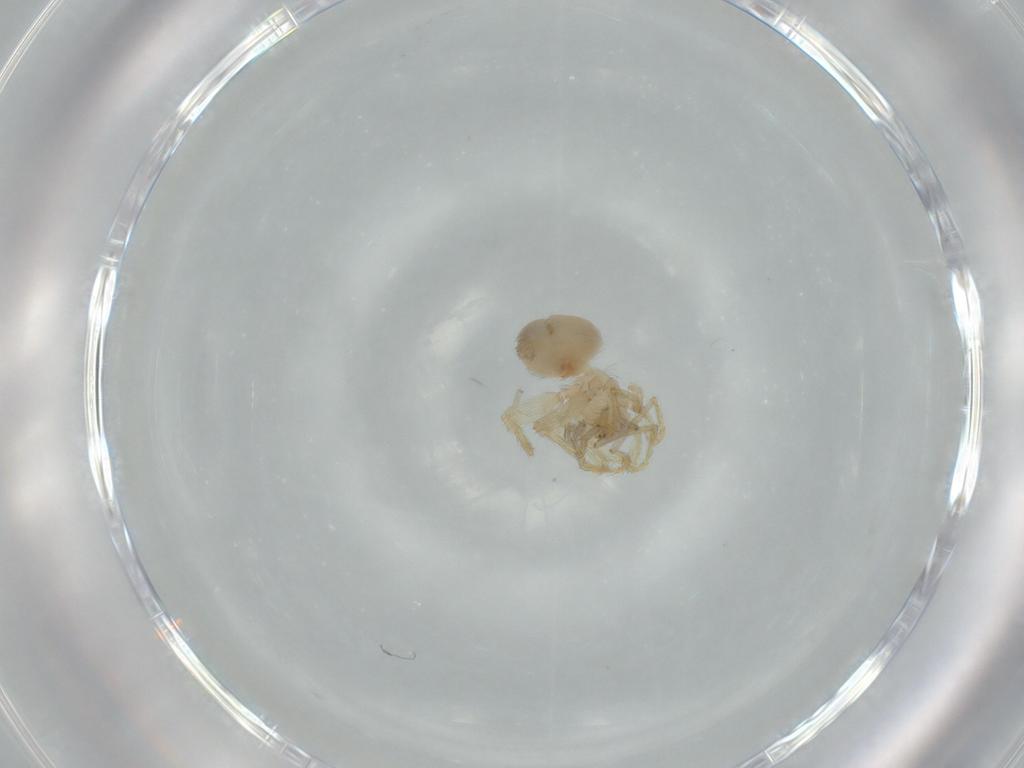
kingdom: Animalia
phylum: Arthropoda
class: Arachnida
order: Araneae
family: Oonopidae
